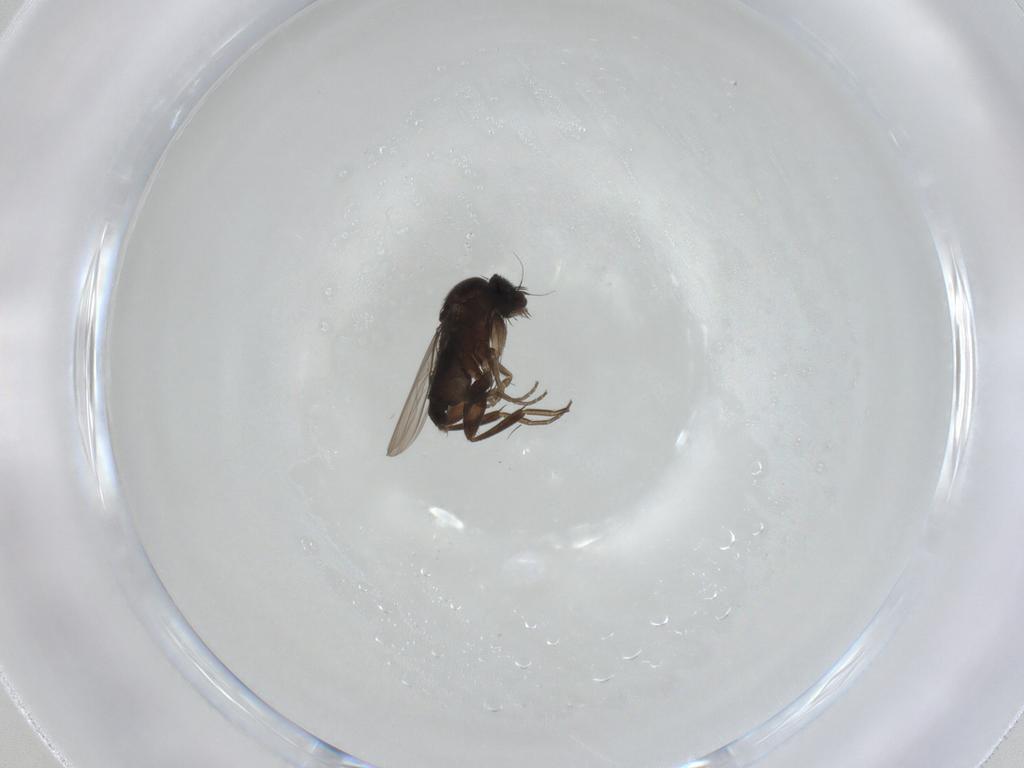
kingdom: Animalia
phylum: Arthropoda
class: Insecta
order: Diptera
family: Phoridae
